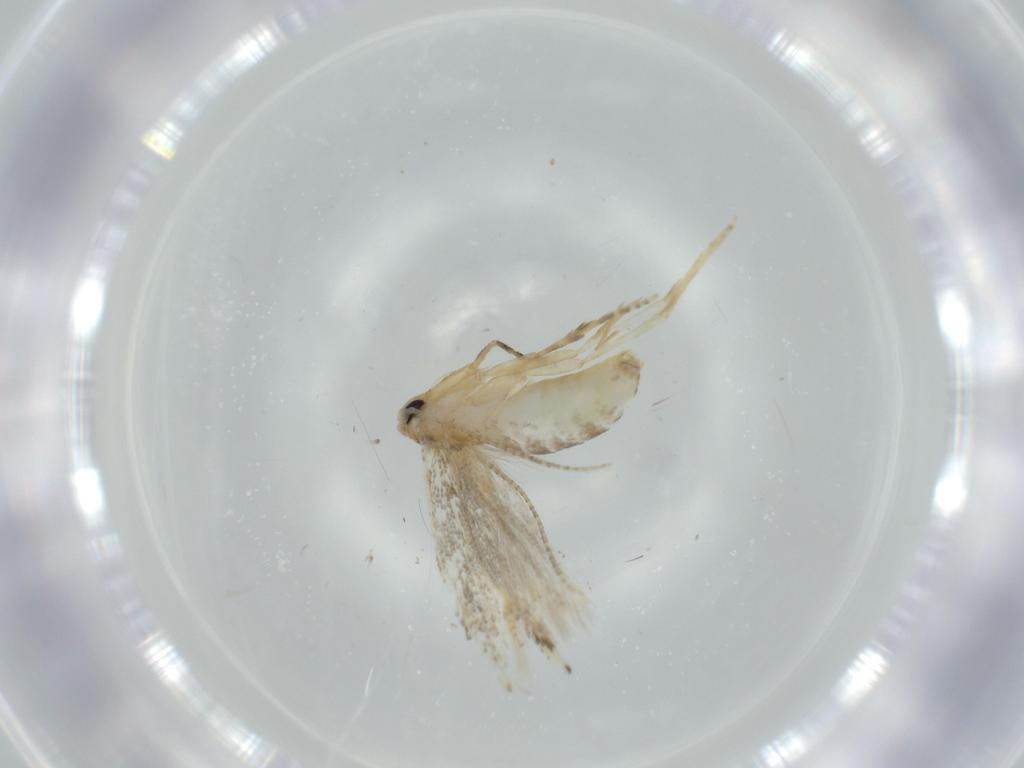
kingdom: Animalia
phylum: Arthropoda
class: Insecta
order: Lepidoptera
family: Bucculatricidae
